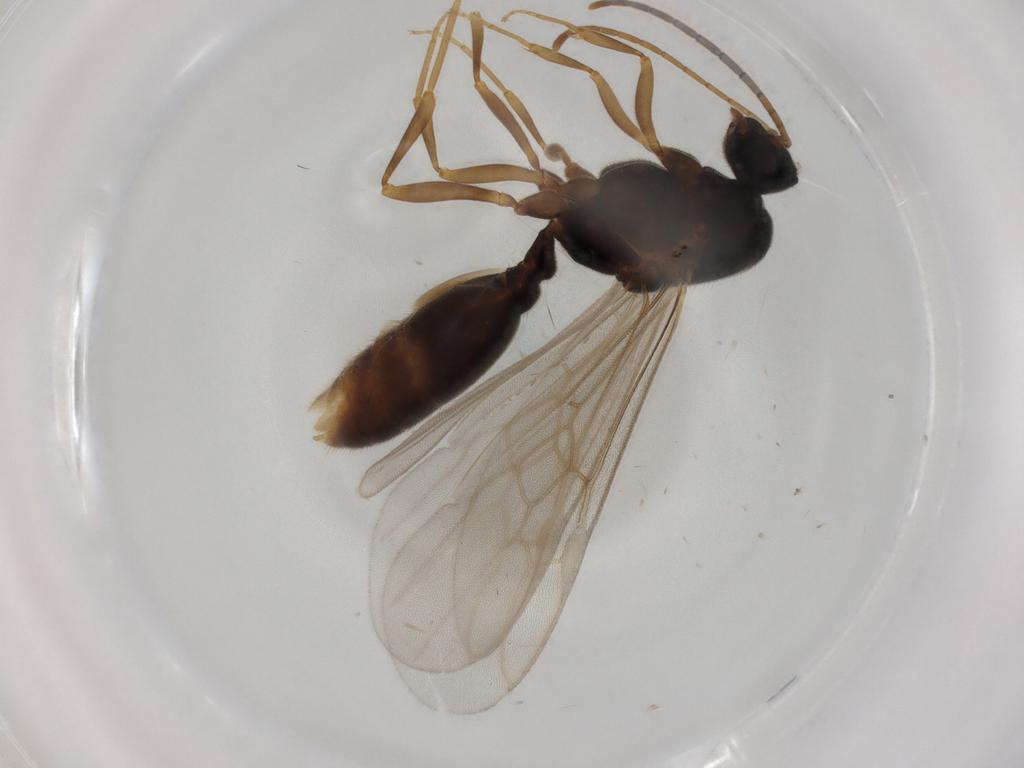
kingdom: Animalia
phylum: Arthropoda
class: Insecta
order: Hymenoptera
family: Formicidae
